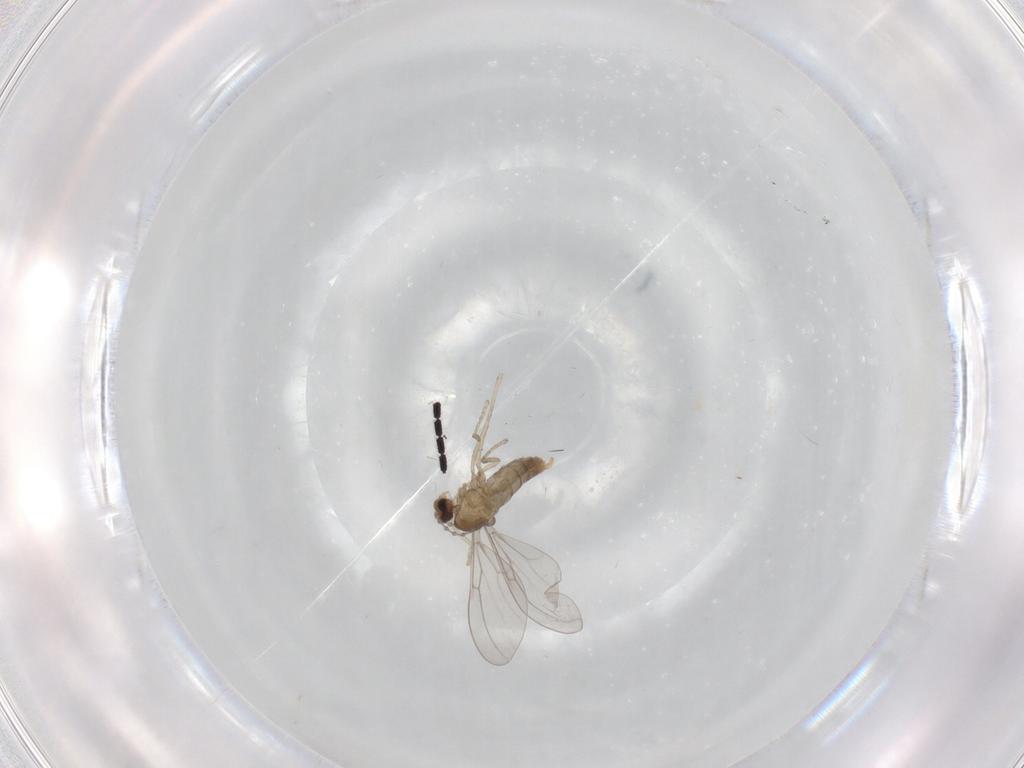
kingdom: Animalia
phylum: Arthropoda
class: Insecta
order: Diptera
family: Cecidomyiidae
